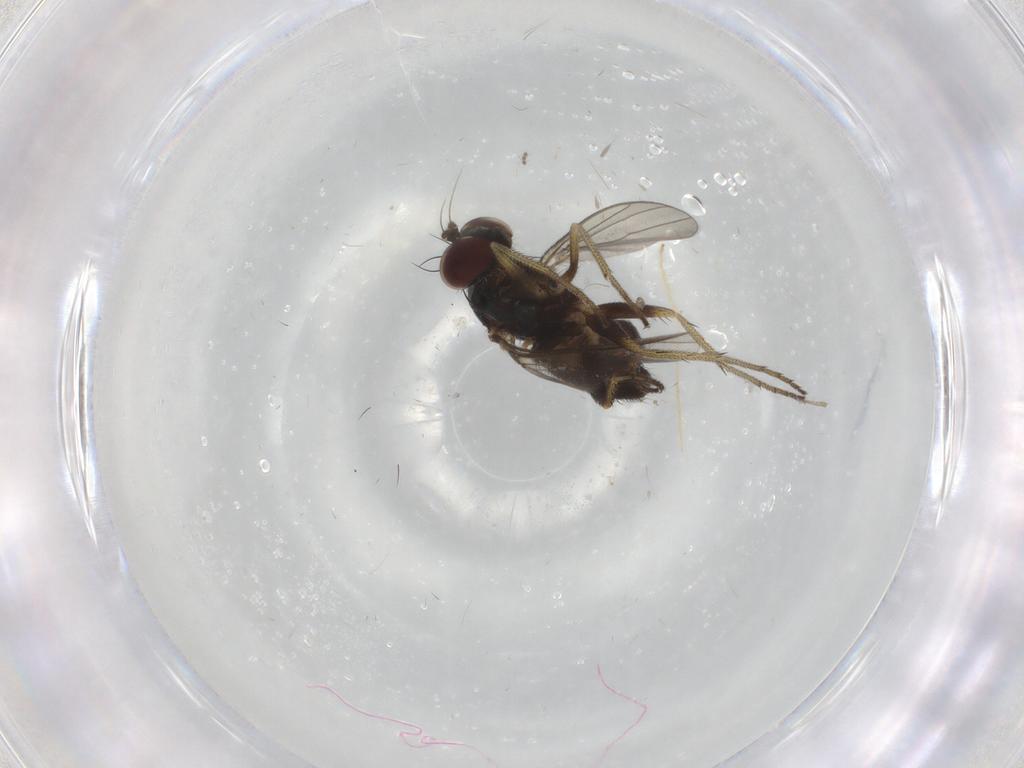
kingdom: Animalia
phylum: Arthropoda
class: Insecta
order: Diptera
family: Chironomidae
